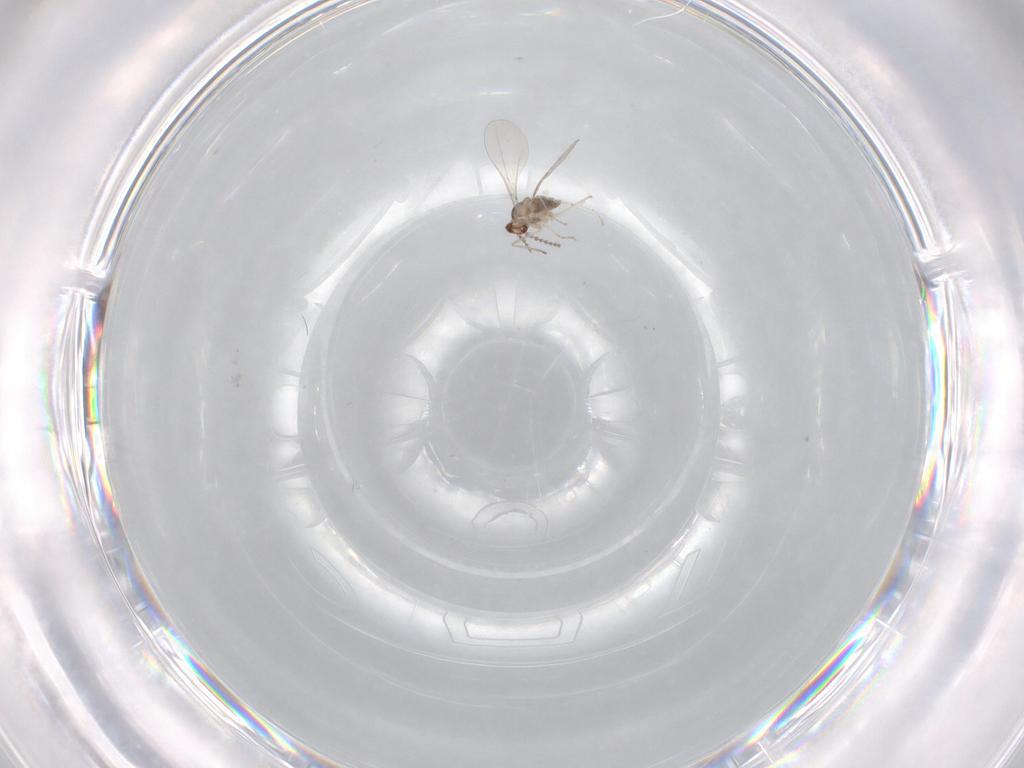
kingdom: Animalia
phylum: Arthropoda
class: Insecta
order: Diptera
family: Cecidomyiidae
